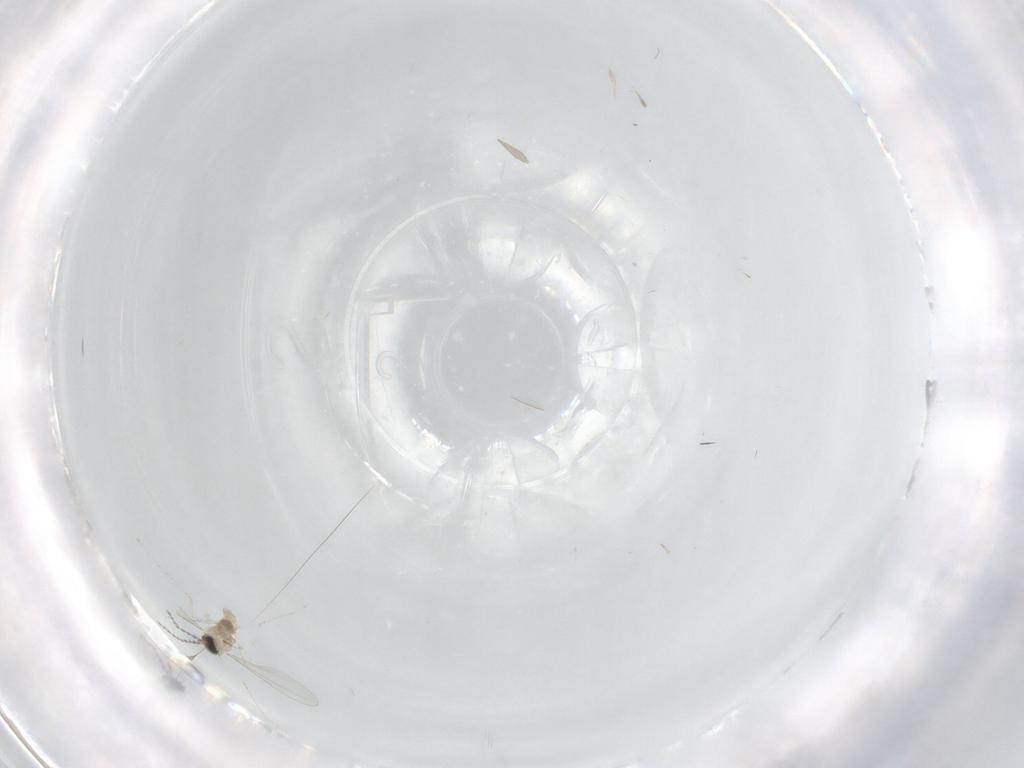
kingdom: Animalia
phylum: Arthropoda
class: Insecta
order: Diptera
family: Cecidomyiidae
